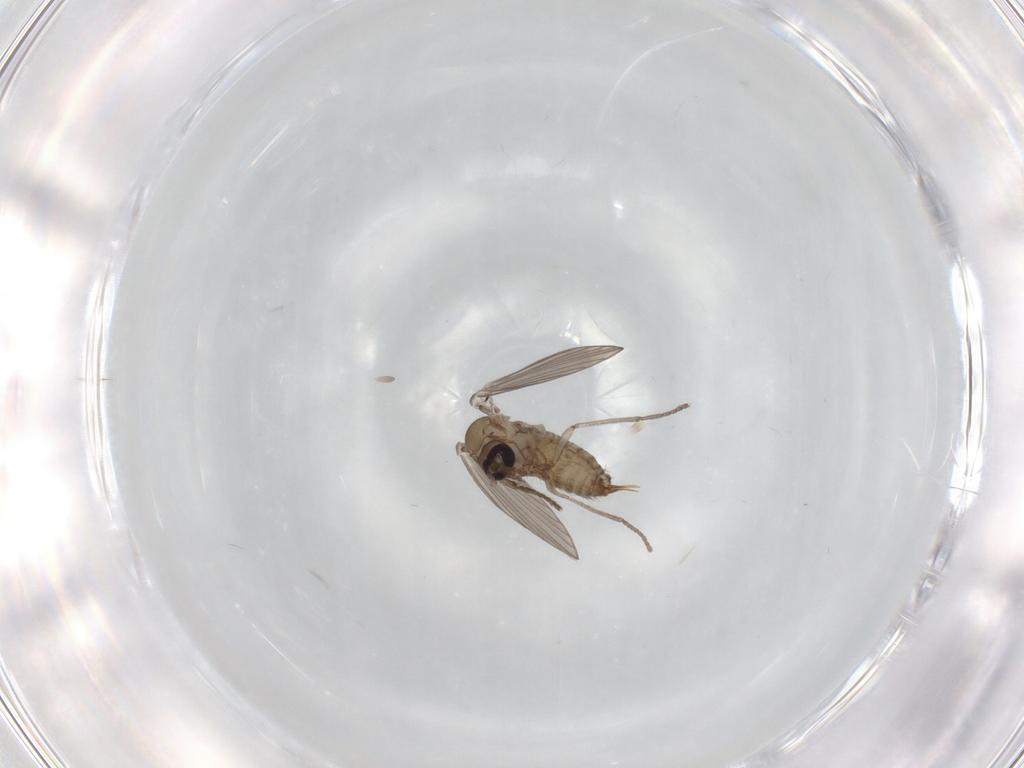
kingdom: Animalia
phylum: Arthropoda
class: Insecta
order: Diptera
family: Psychodidae
